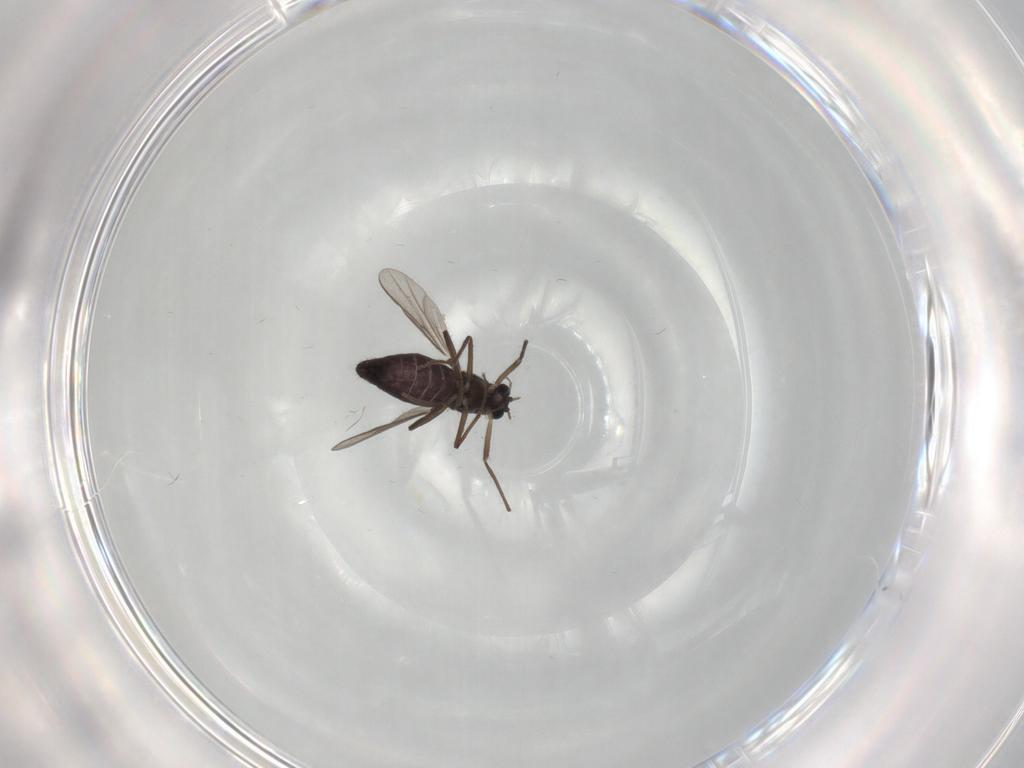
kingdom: Animalia
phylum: Arthropoda
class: Insecta
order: Diptera
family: Chironomidae
